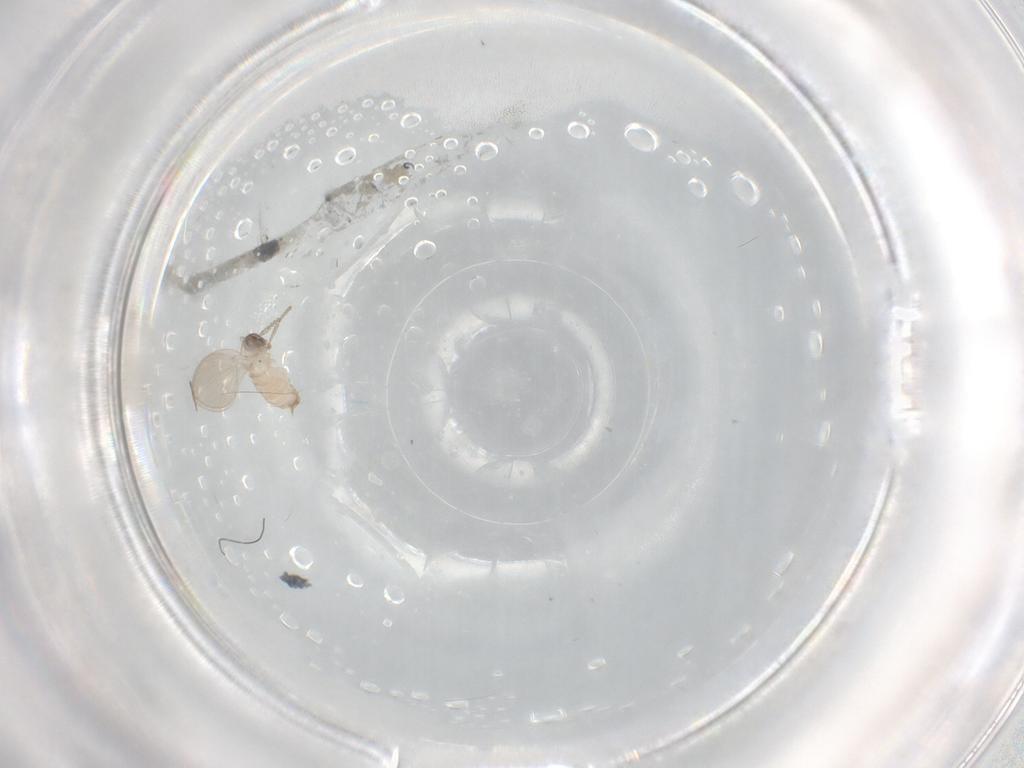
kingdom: Animalia
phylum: Arthropoda
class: Insecta
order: Diptera
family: Psychodidae
